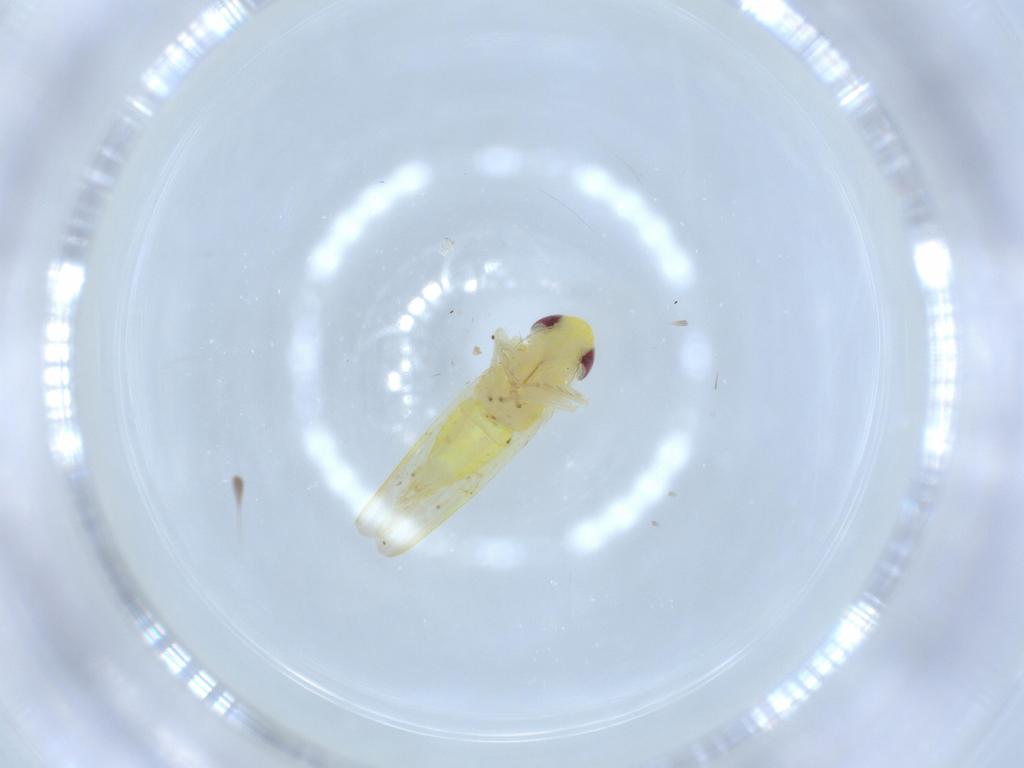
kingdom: Animalia
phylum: Arthropoda
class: Insecta
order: Hemiptera
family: Cicadellidae
